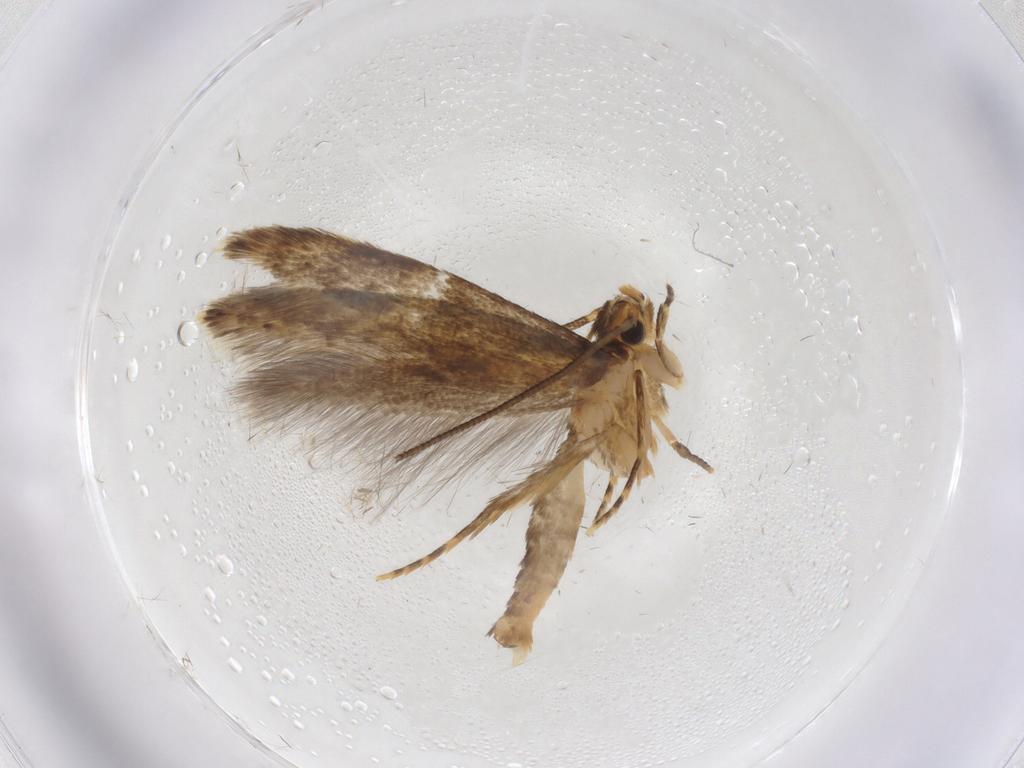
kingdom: Animalia
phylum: Arthropoda
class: Insecta
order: Lepidoptera
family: Tineidae
